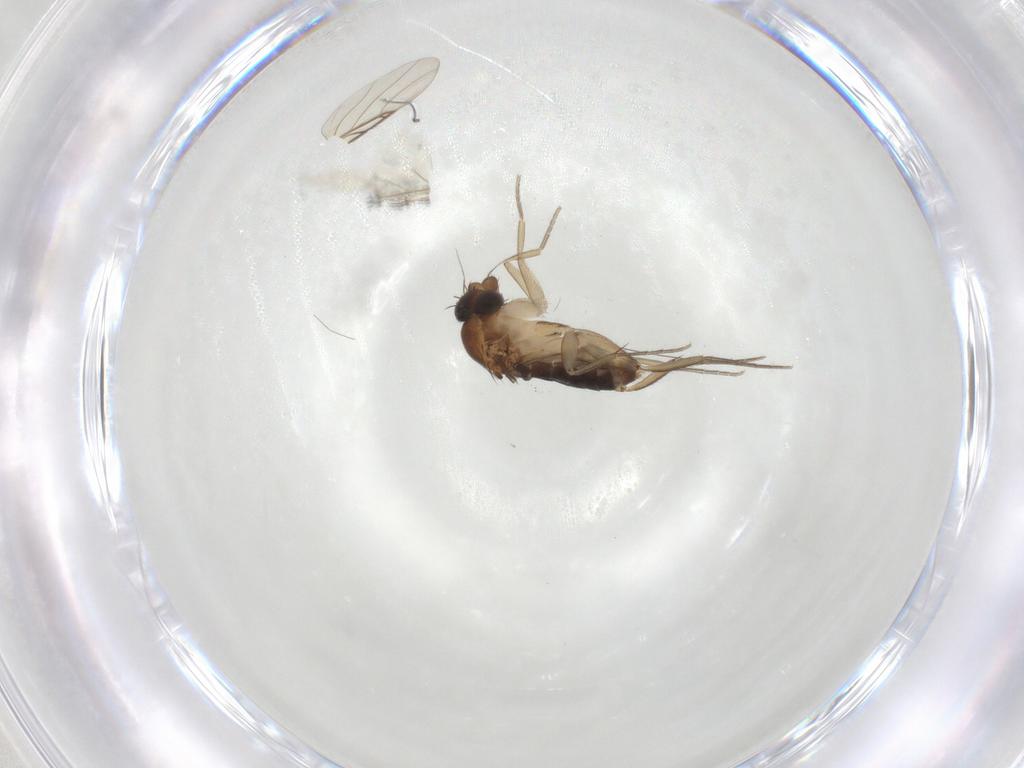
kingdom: Animalia
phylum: Arthropoda
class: Insecta
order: Diptera
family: Phoridae
